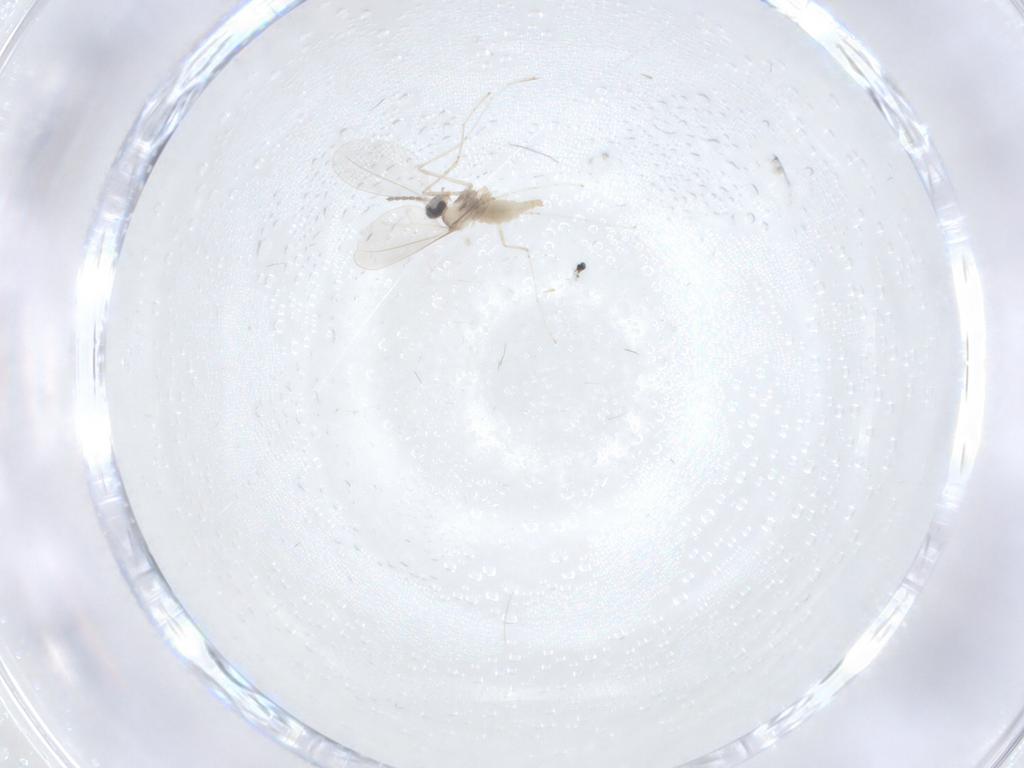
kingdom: Animalia
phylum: Arthropoda
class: Insecta
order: Diptera
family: Cecidomyiidae
